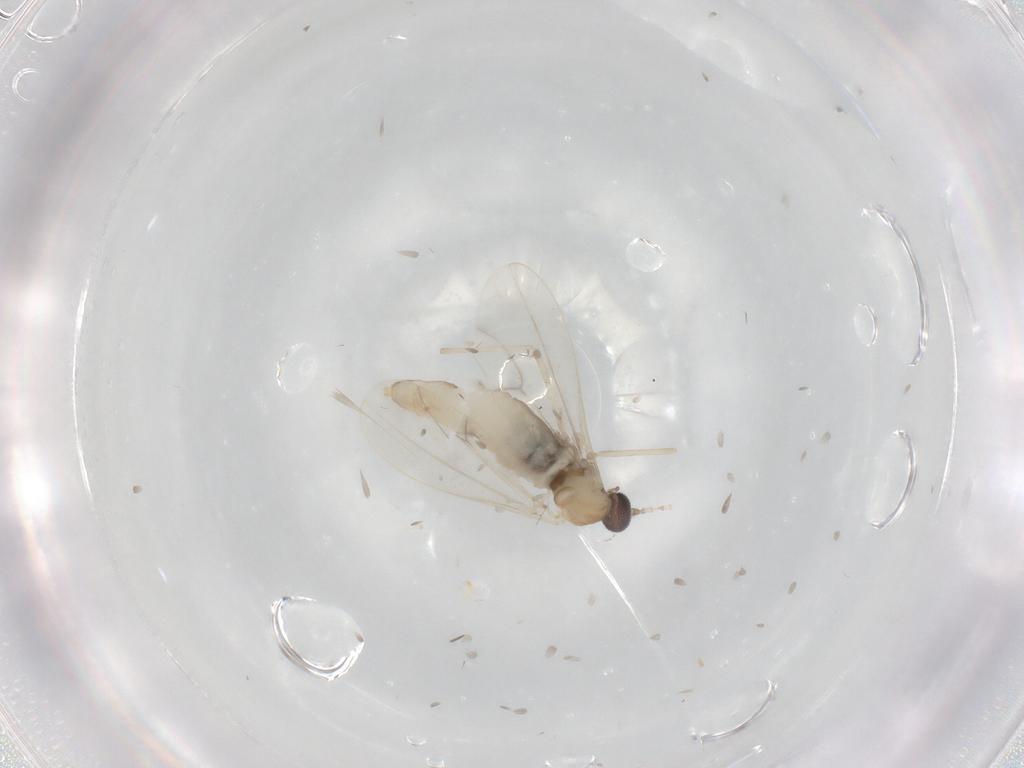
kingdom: Animalia
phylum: Arthropoda
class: Insecta
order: Diptera
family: Cecidomyiidae
